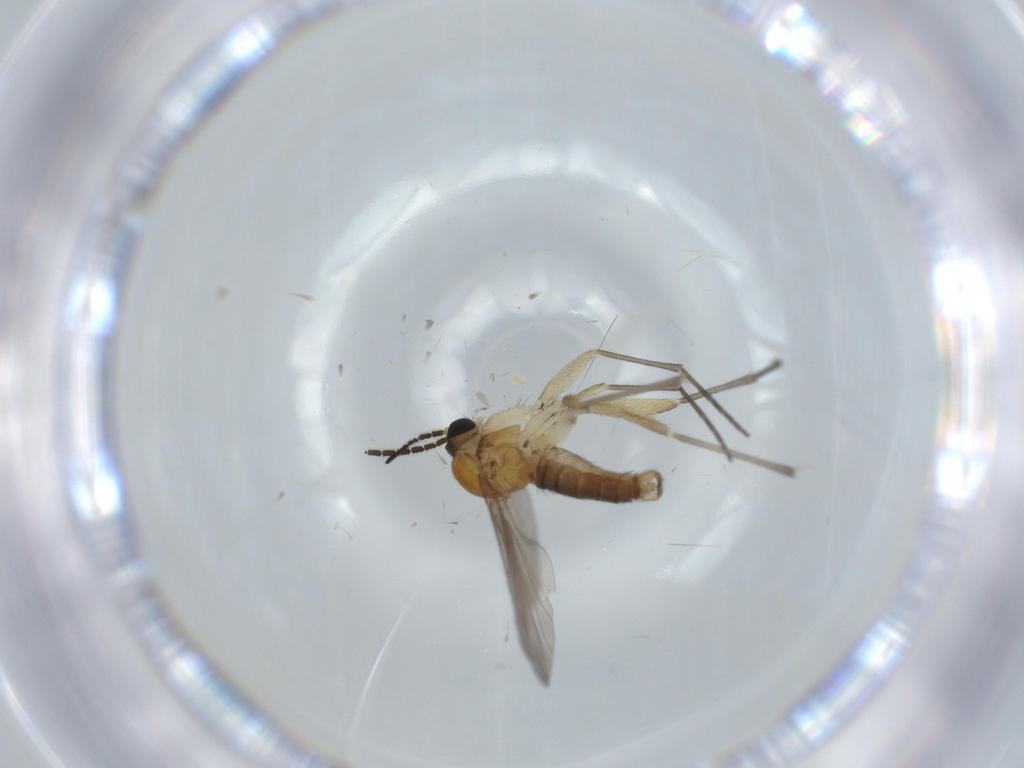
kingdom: Animalia
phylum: Arthropoda
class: Insecta
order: Diptera
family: Sciaridae
